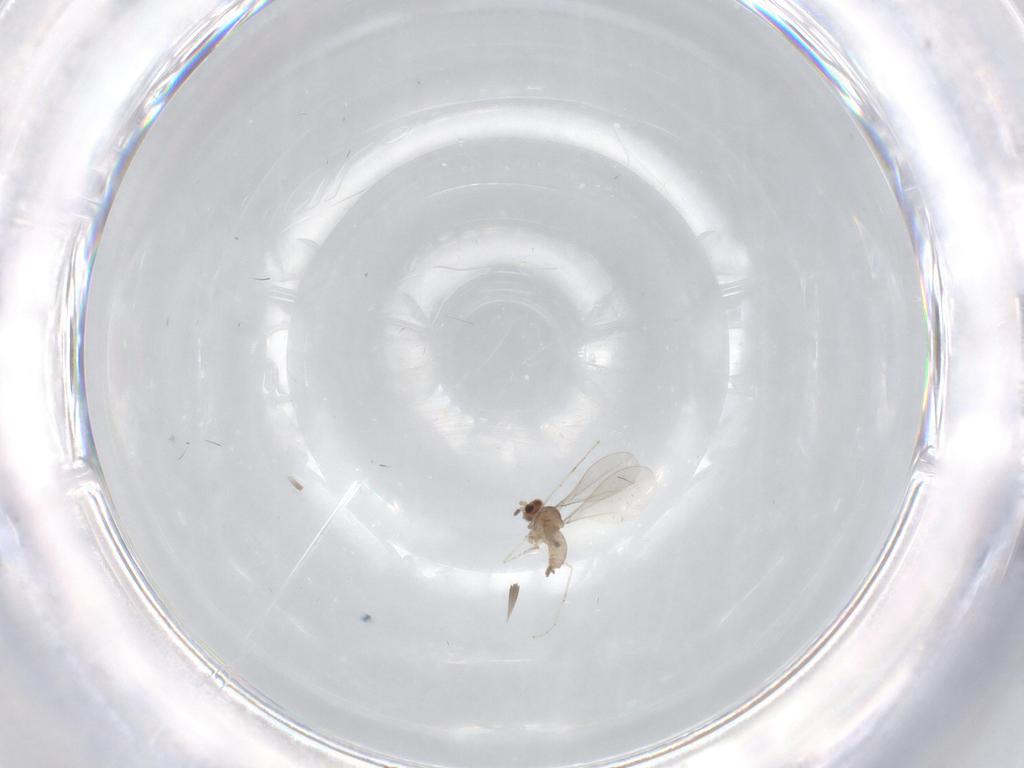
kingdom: Animalia
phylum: Arthropoda
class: Insecta
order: Diptera
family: Cecidomyiidae
